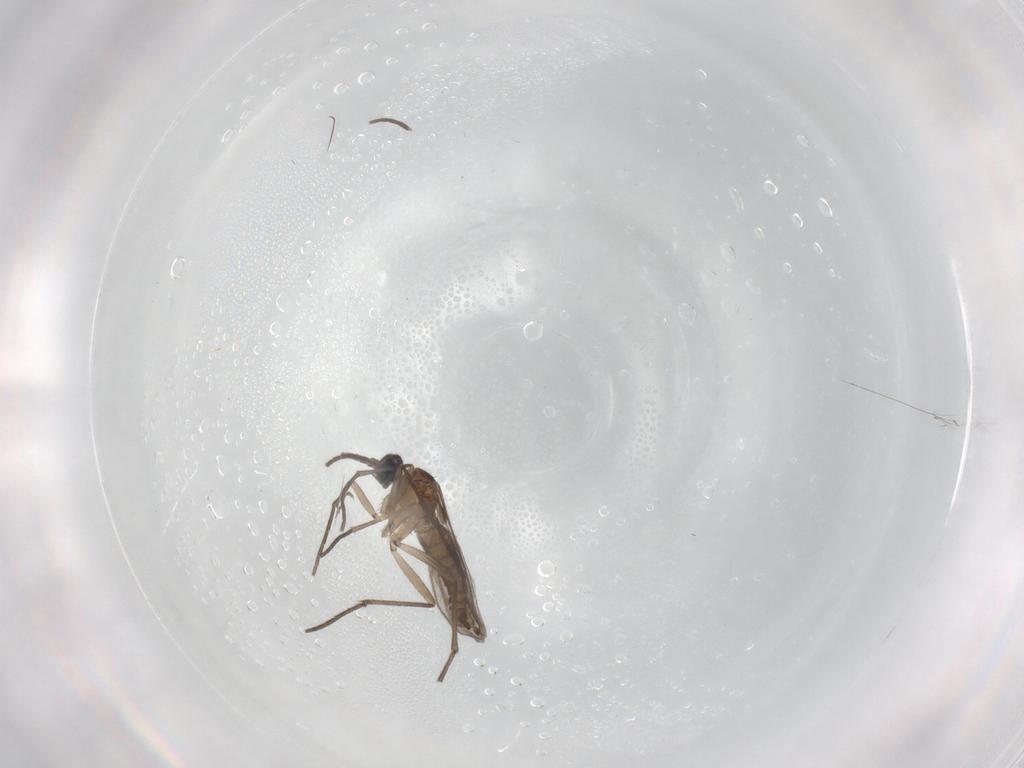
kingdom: Animalia
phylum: Arthropoda
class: Insecta
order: Diptera
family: Sciaridae
